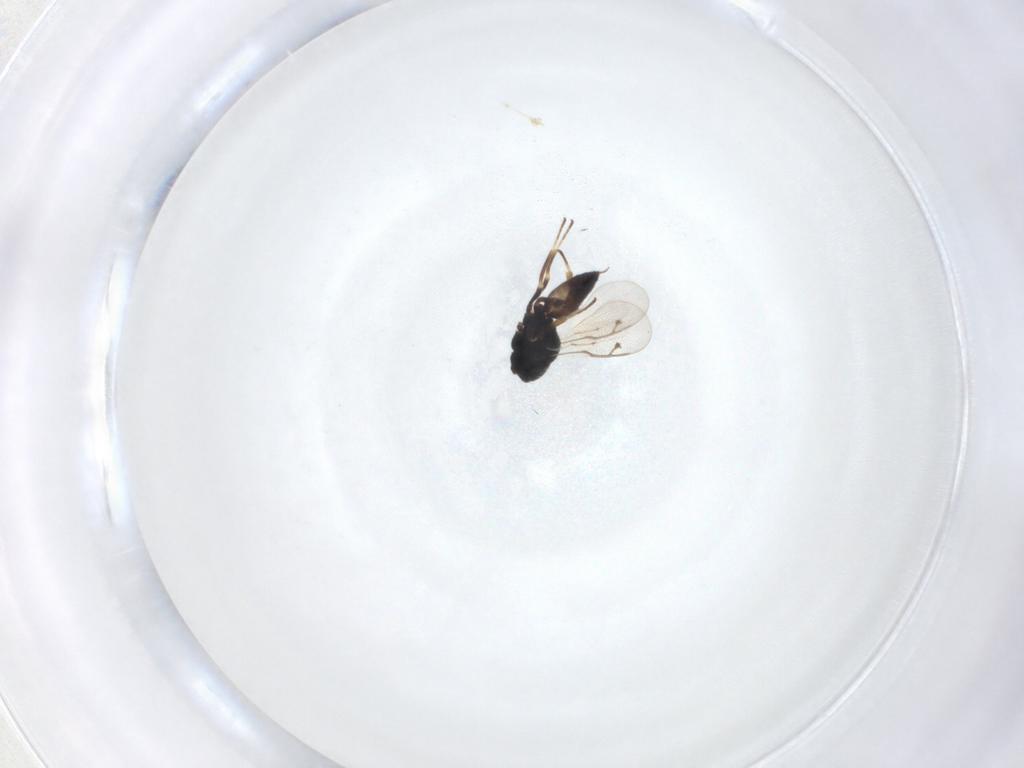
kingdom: Animalia
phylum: Arthropoda
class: Insecta
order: Hymenoptera
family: Pteromalidae
